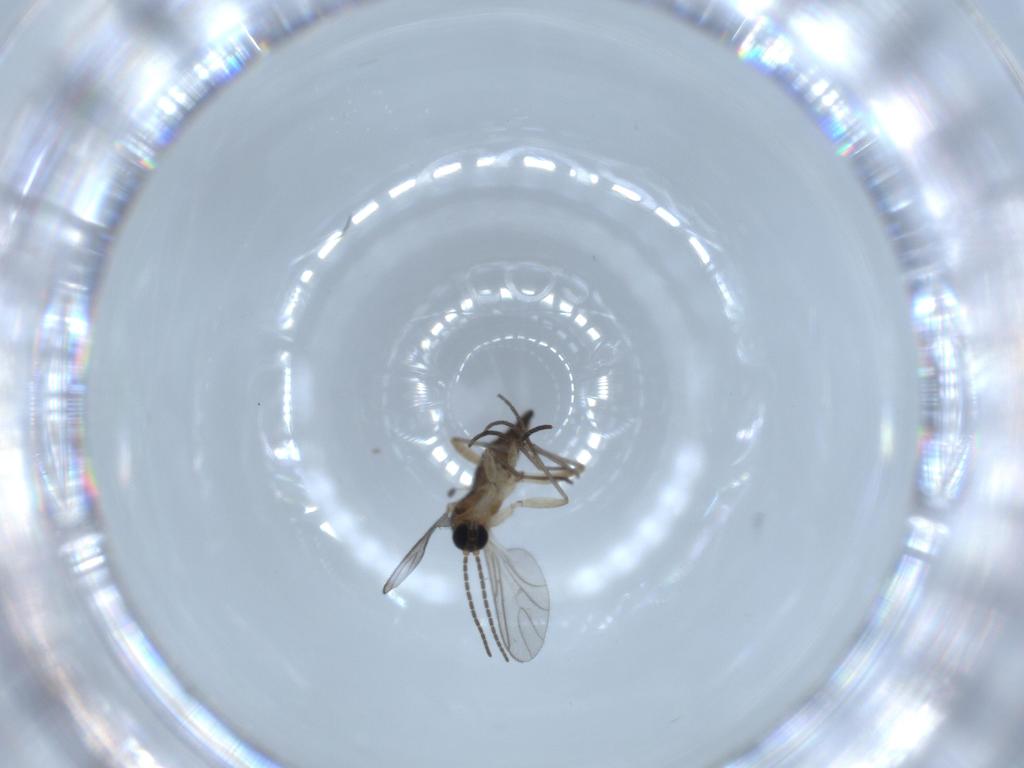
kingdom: Animalia
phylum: Arthropoda
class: Insecta
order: Diptera
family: Sciaridae
